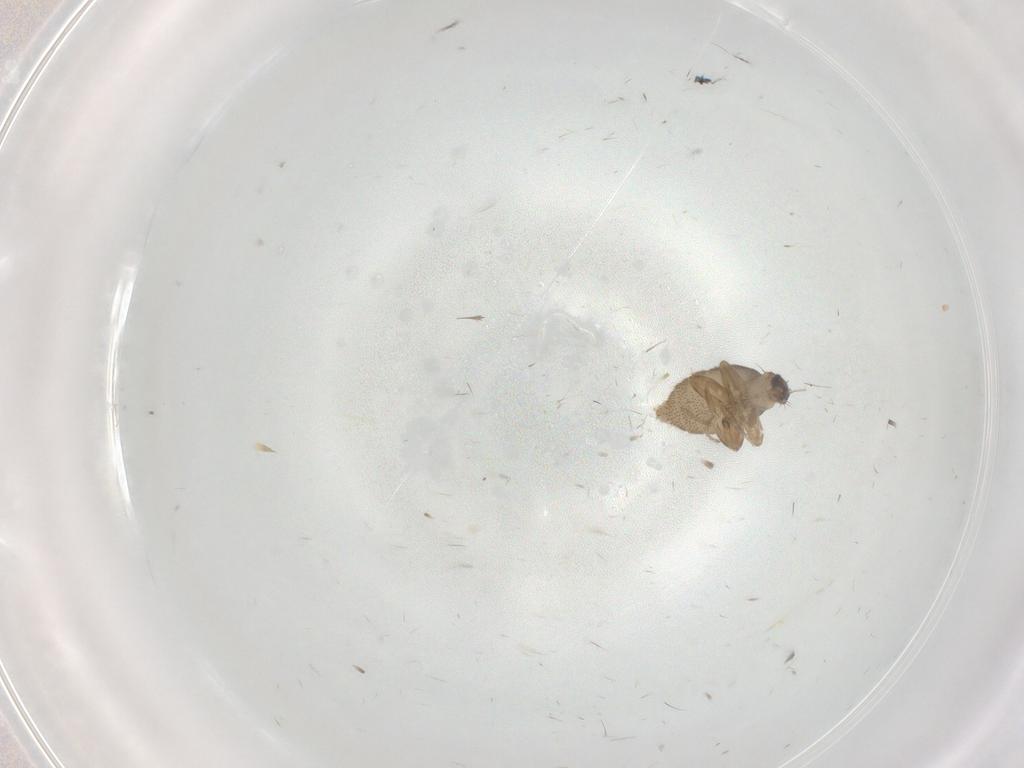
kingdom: Animalia
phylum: Arthropoda
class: Insecta
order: Diptera
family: Phoridae
